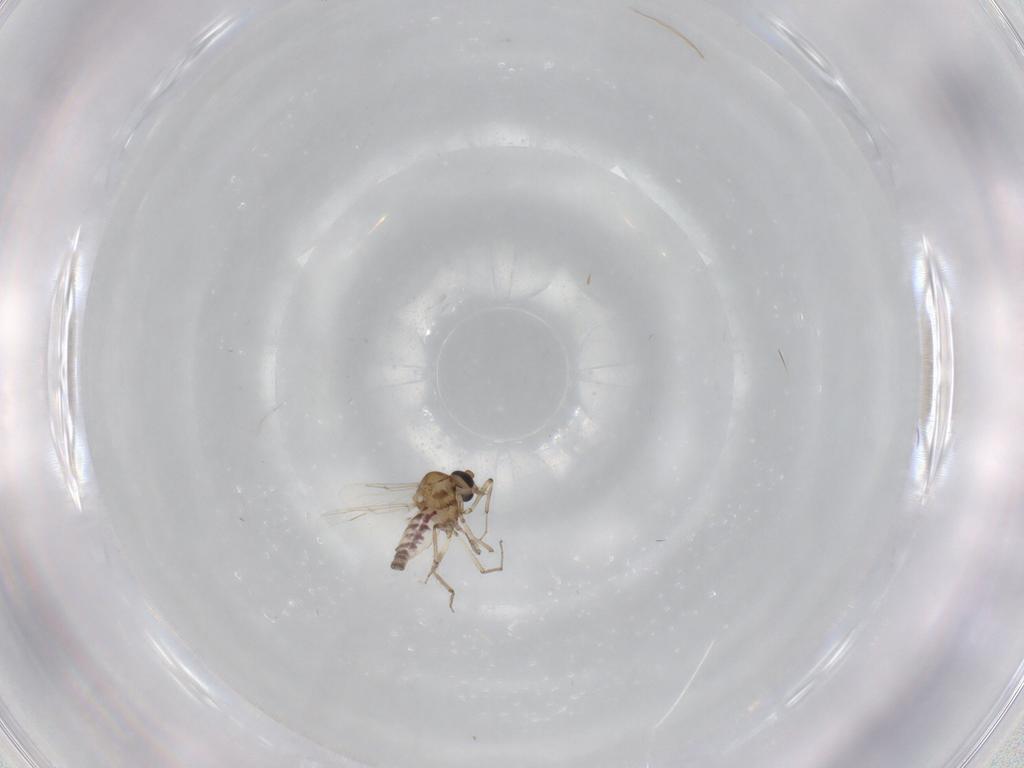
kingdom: Animalia
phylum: Arthropoda
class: Insecta
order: Diptera
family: Ceratopogonidae
